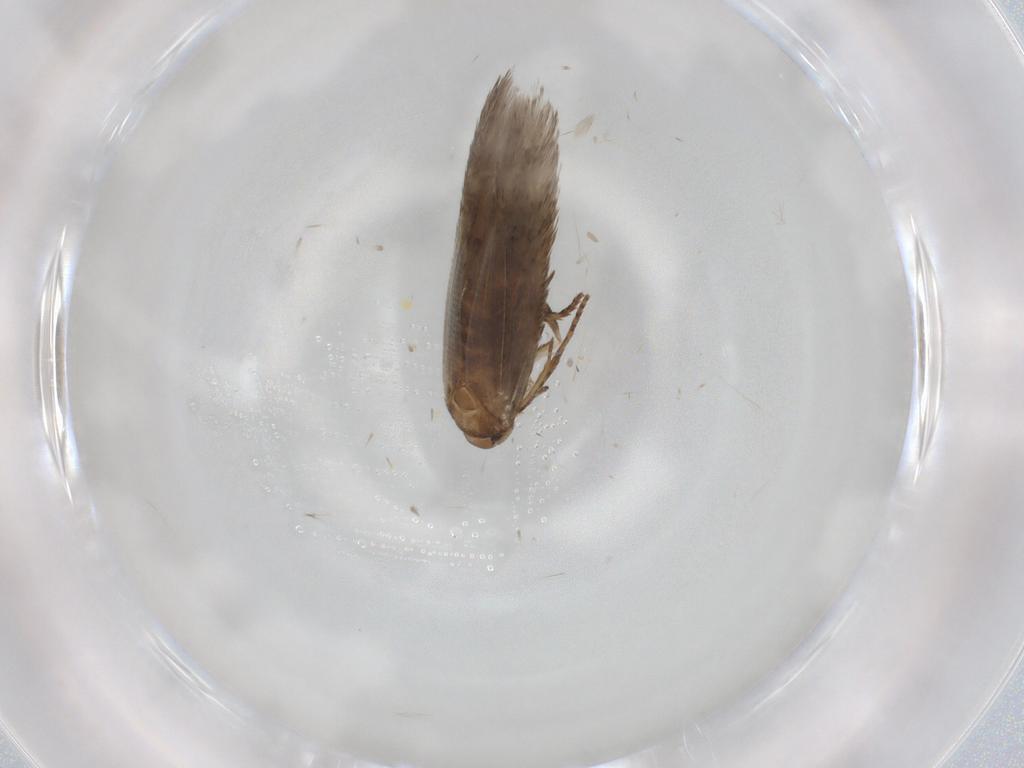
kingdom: Animalia
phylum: Arthropoda
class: Insecta
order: Lepidoptera
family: Cosmopterigidae
